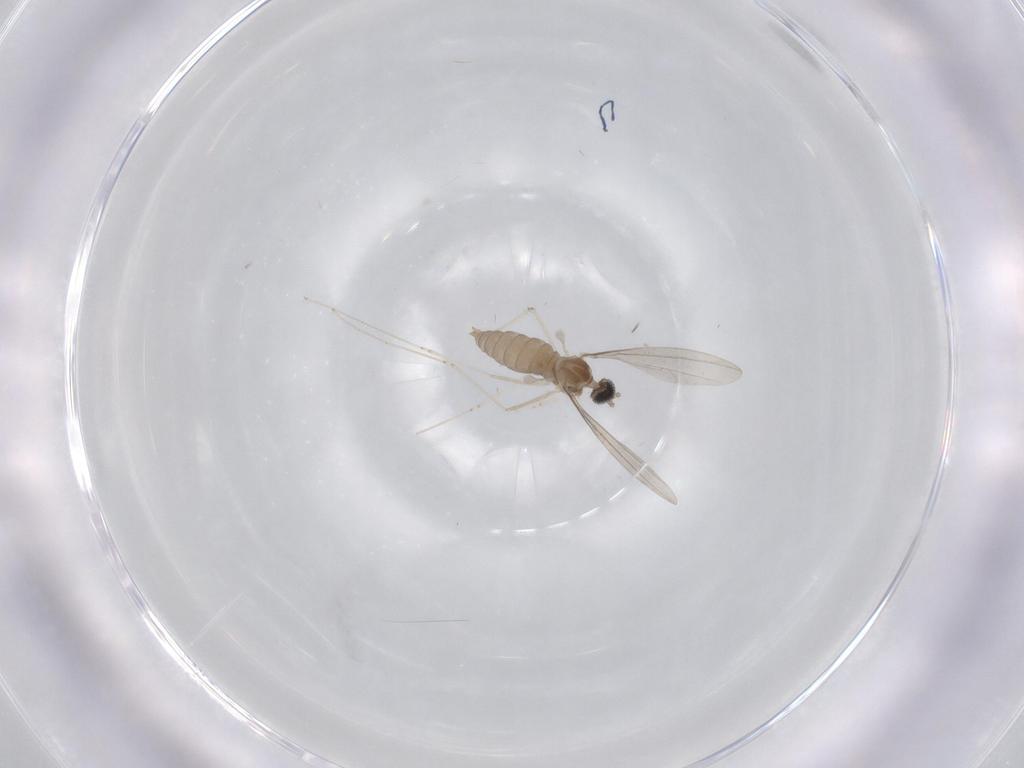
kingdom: Animalia
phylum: Arthropoda
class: Insecta
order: Diptera
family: Cecidomyiidae
